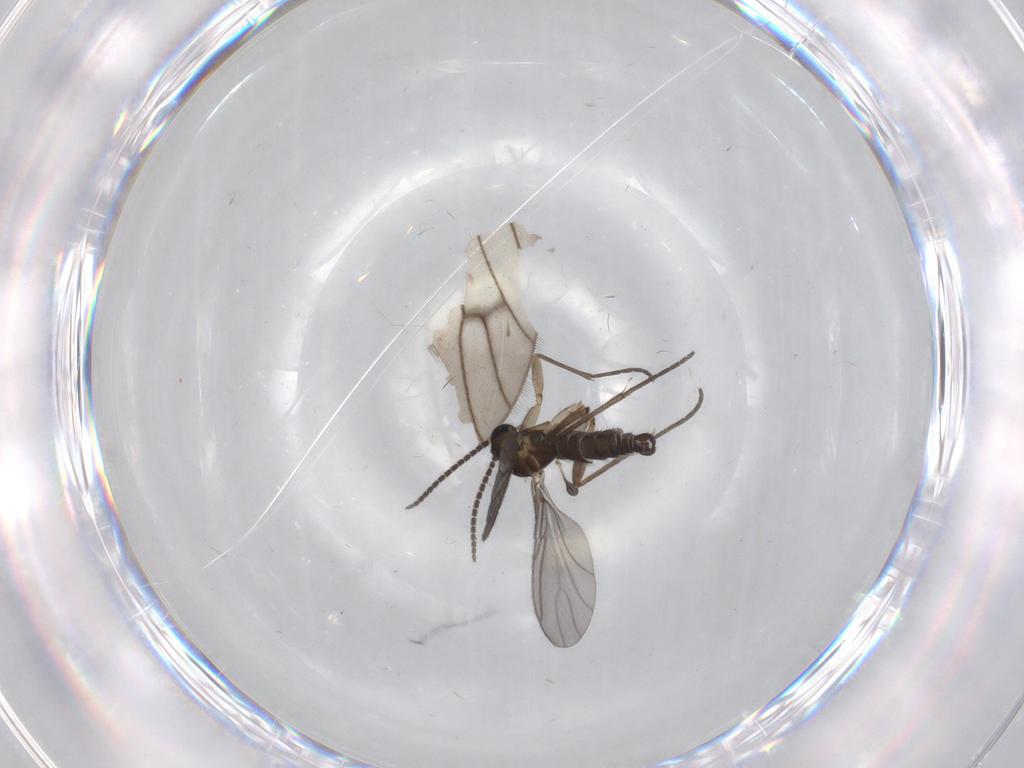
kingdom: Animalia
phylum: Arthropoda
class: Insecta
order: Diptera
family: Sciaridae
